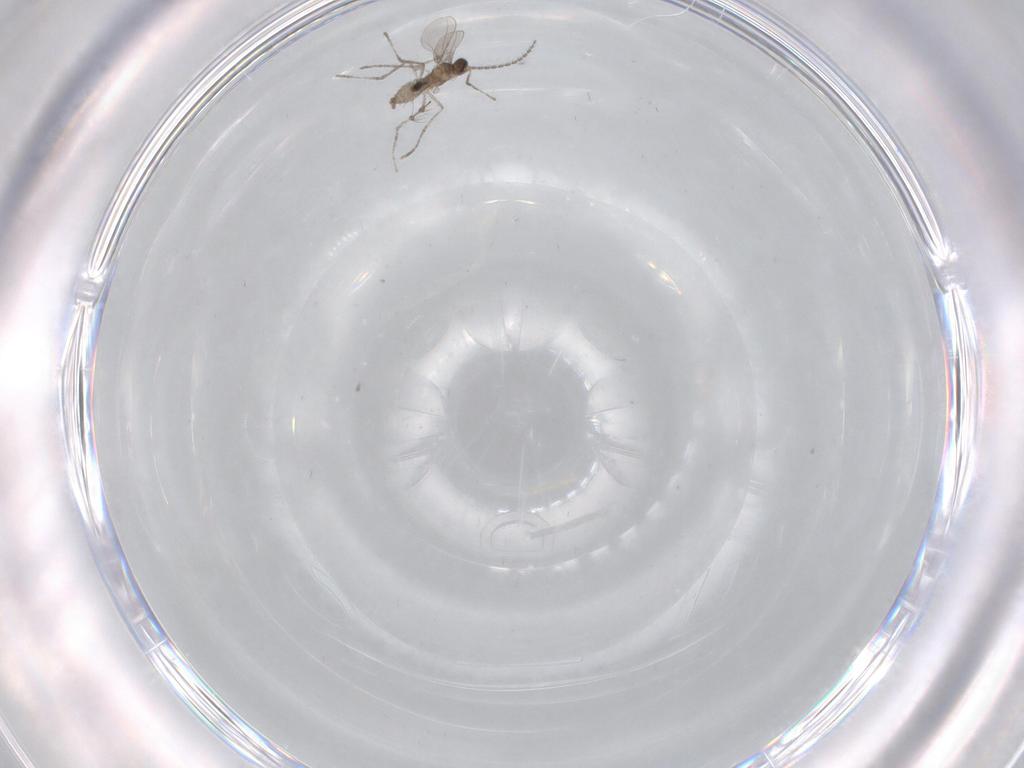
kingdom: Animalia
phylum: Arthropoda
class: Insecta
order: Diptera
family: Cecidomyiidae
